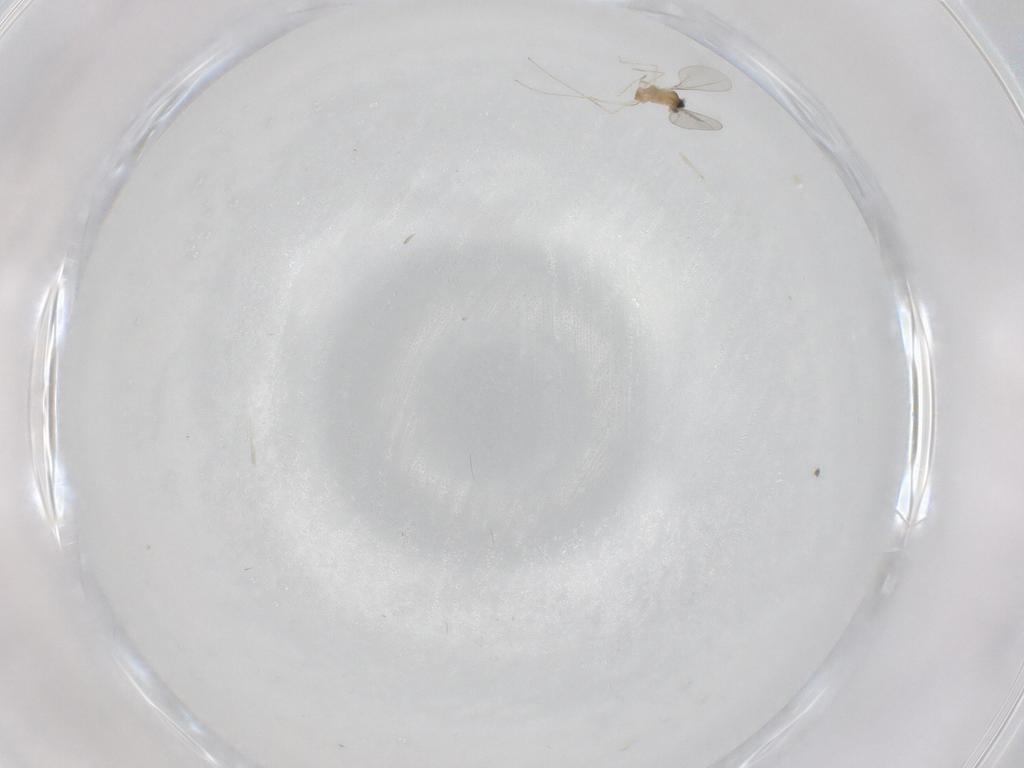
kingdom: Animalia
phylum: Arthropoda
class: Insecta
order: Diptera
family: Cecidomyiidae
